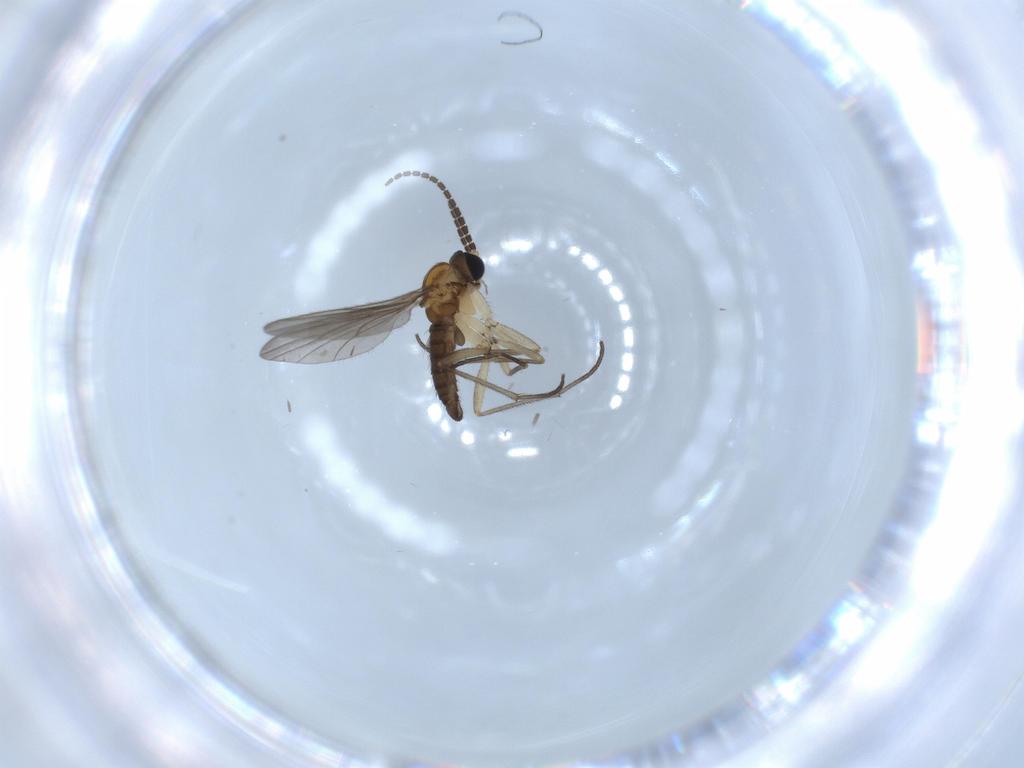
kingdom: Animalia
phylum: Arthropoda
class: Insecta
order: Diptera
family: Sciaridae
